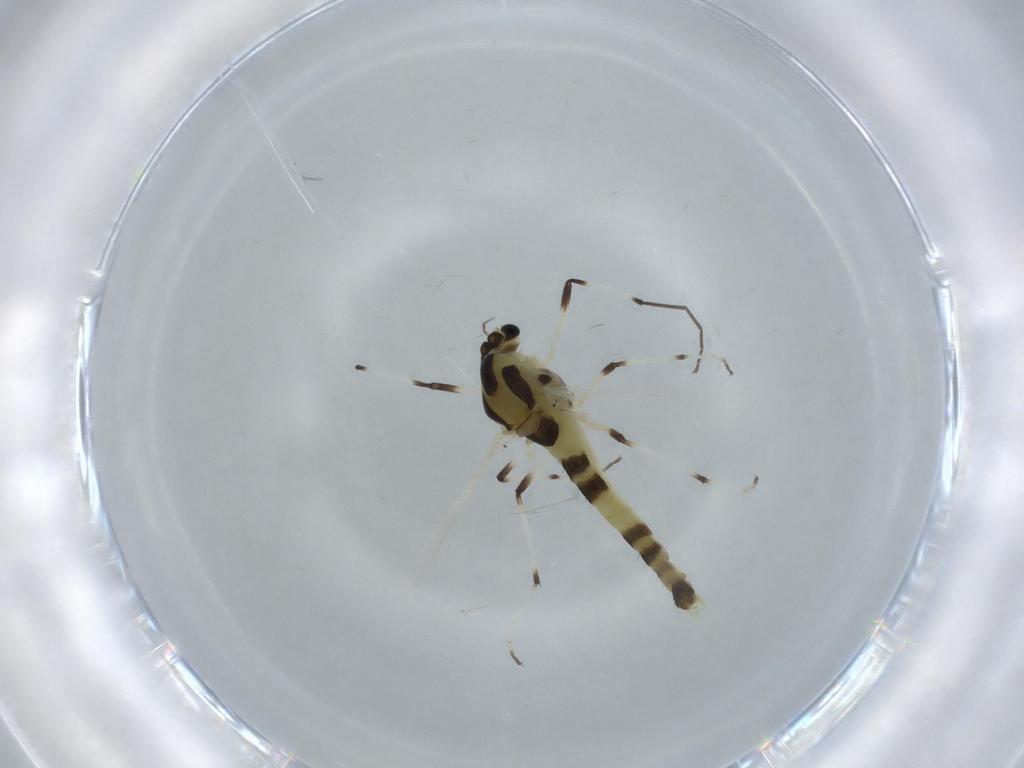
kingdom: Animalia
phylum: Arthropoda
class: Insecta
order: Diptera
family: Chironomidae
